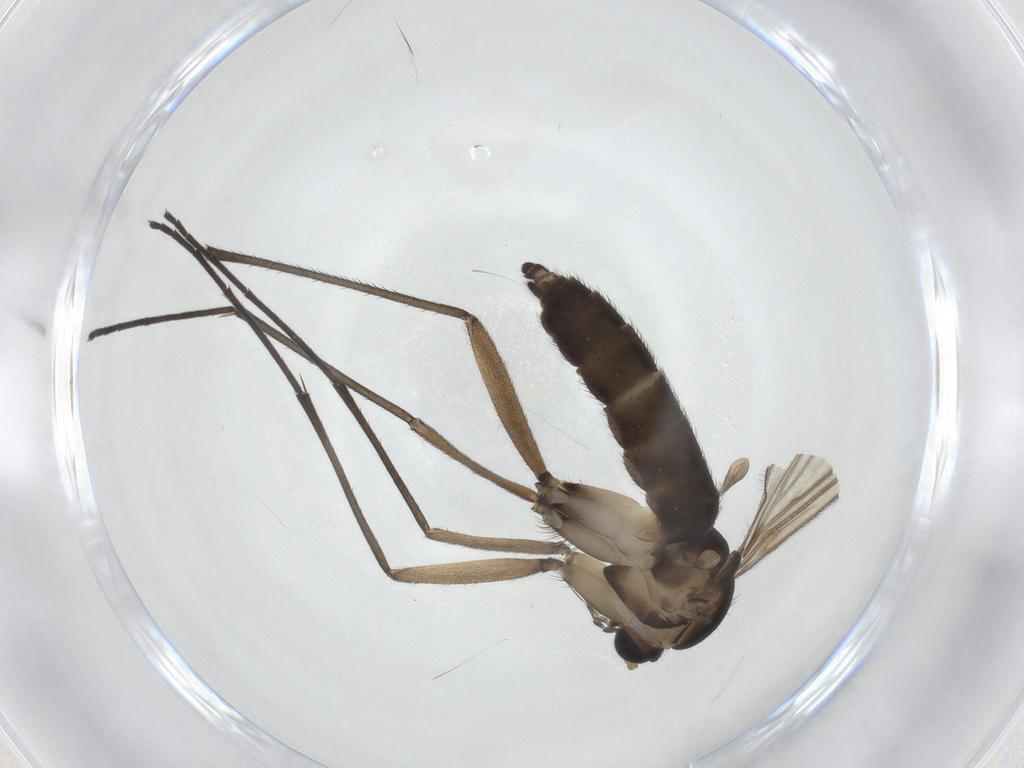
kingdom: Animalia
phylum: Arthropoda
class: Insecta
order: Diptera
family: Sciaridae
